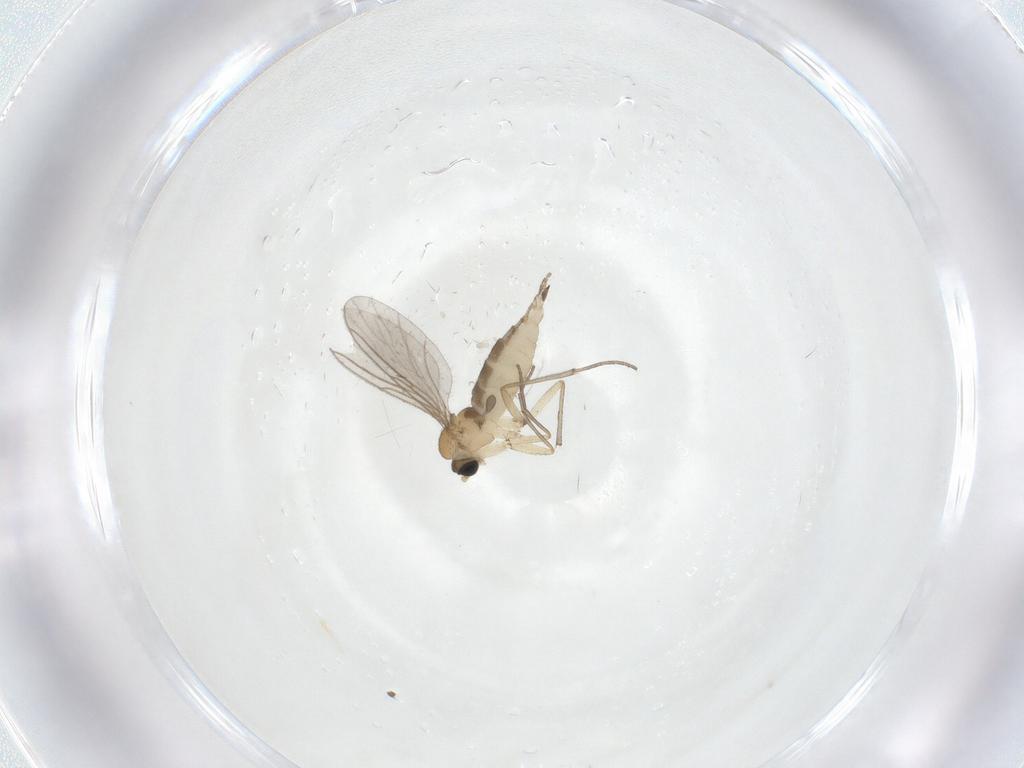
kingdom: Animalia
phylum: Arthropoda
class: Insecta
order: Diptera
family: Sciaridae
